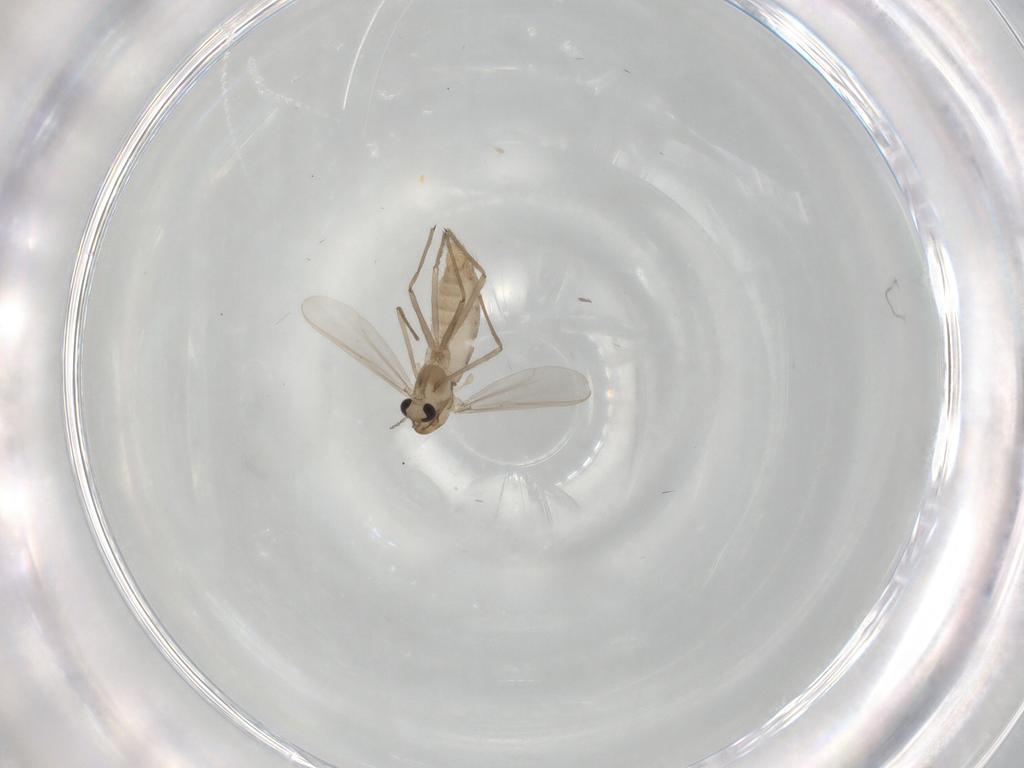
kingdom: Animalia
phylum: Arthropoda
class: Insecta
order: Diptera
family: Chironomidae
